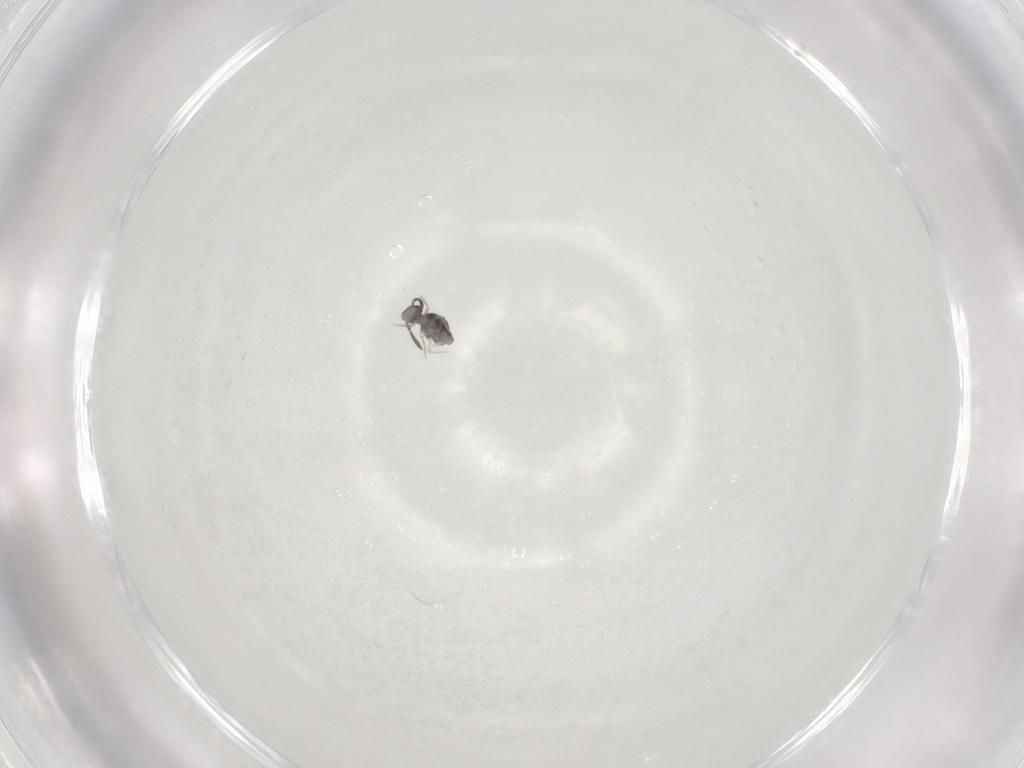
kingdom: Animalia
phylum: Arthropoda
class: Collembola
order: Symphypleona
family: Katiannidae
